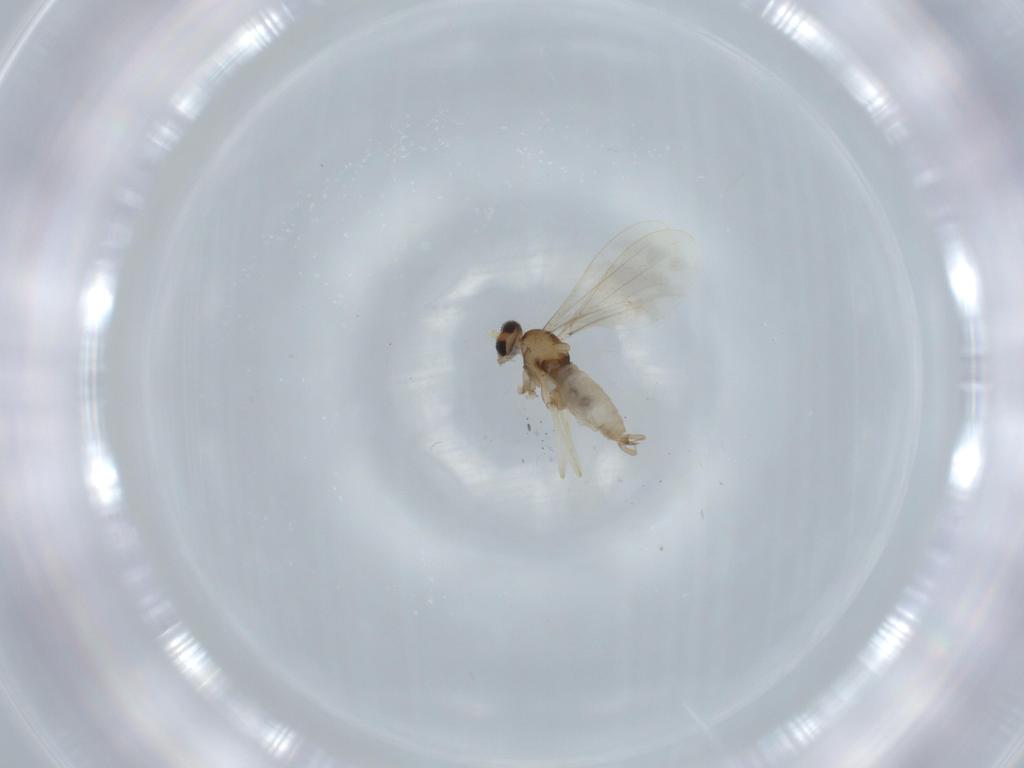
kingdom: Animalia
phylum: Arthropoda
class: Insecta
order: Diptera
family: Cecidomyiidae
